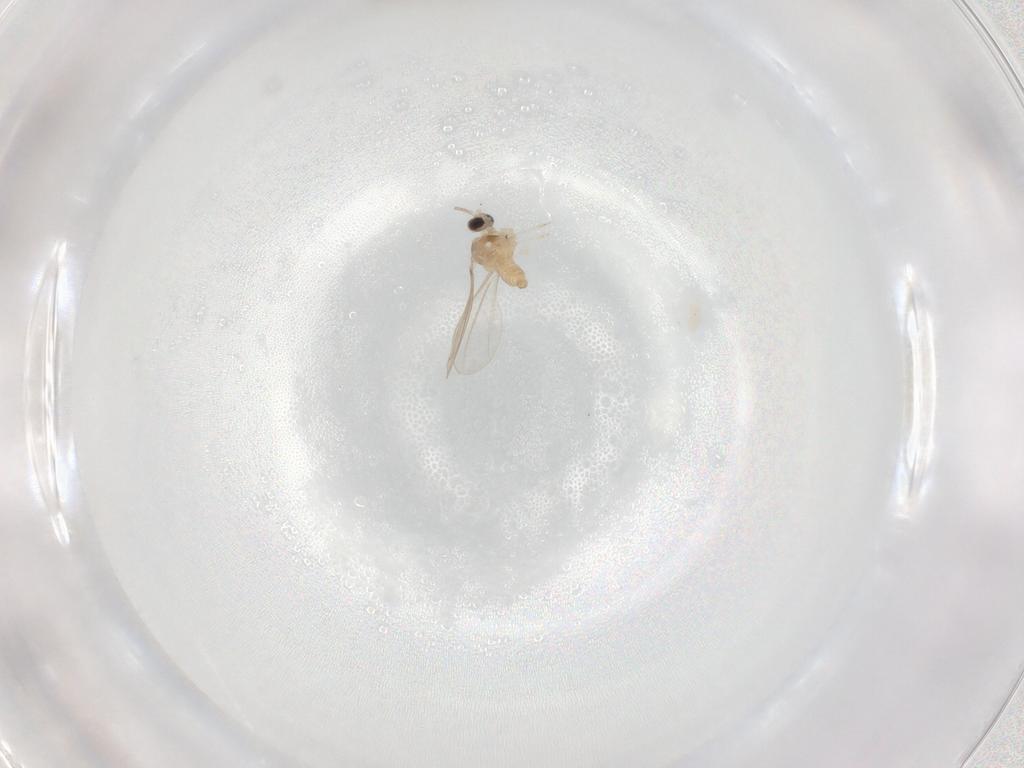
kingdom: Animalia
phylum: Arthropoda
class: Insecta
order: Diptera
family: Cecidomyiidae
